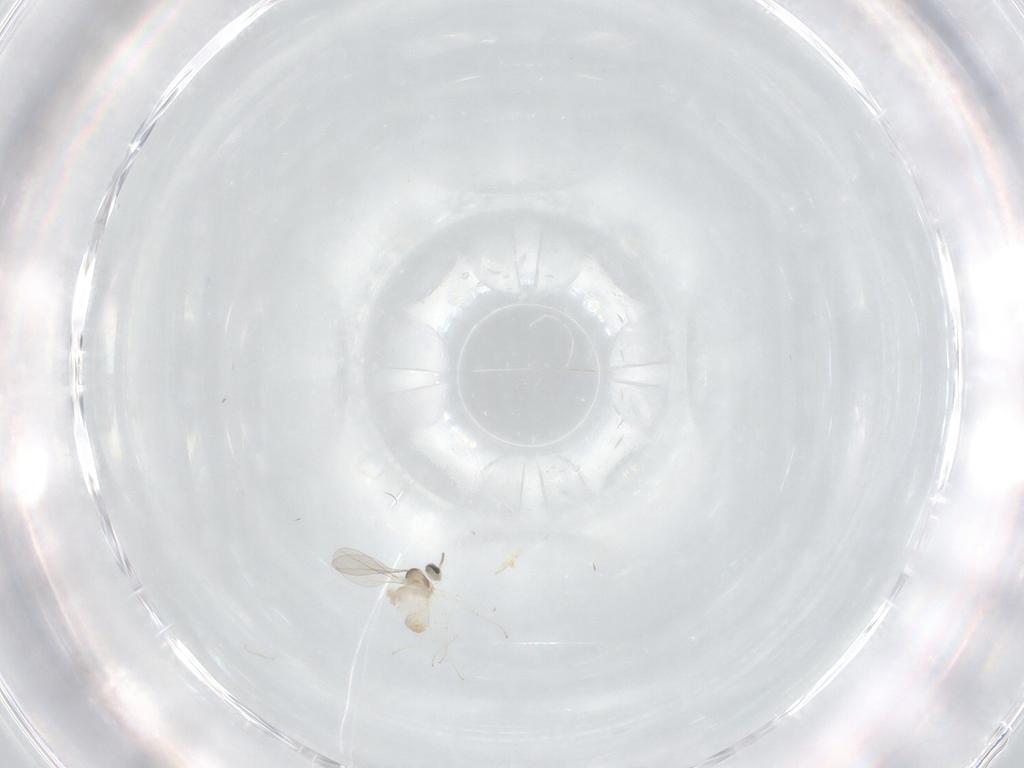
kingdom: Animalia
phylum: Arthropoda
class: Insecta
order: Diptera
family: Cecidomyiidae
